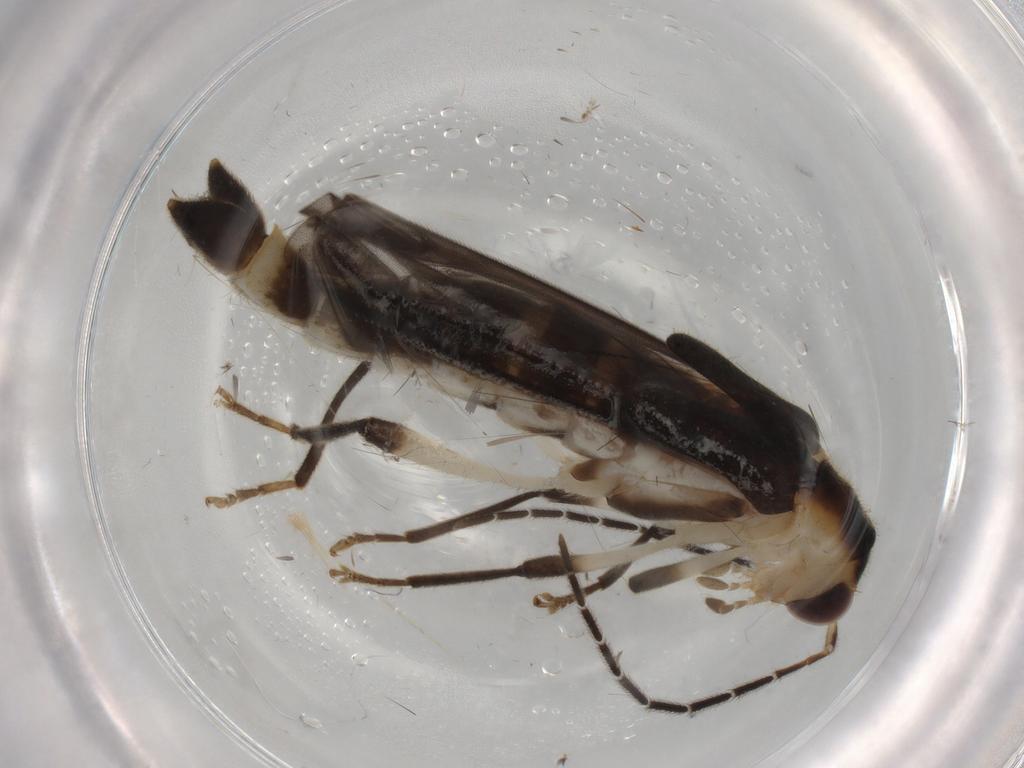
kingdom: Animalia
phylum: Arthropoda
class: Insecta
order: Coleoptera
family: Cantharidae
